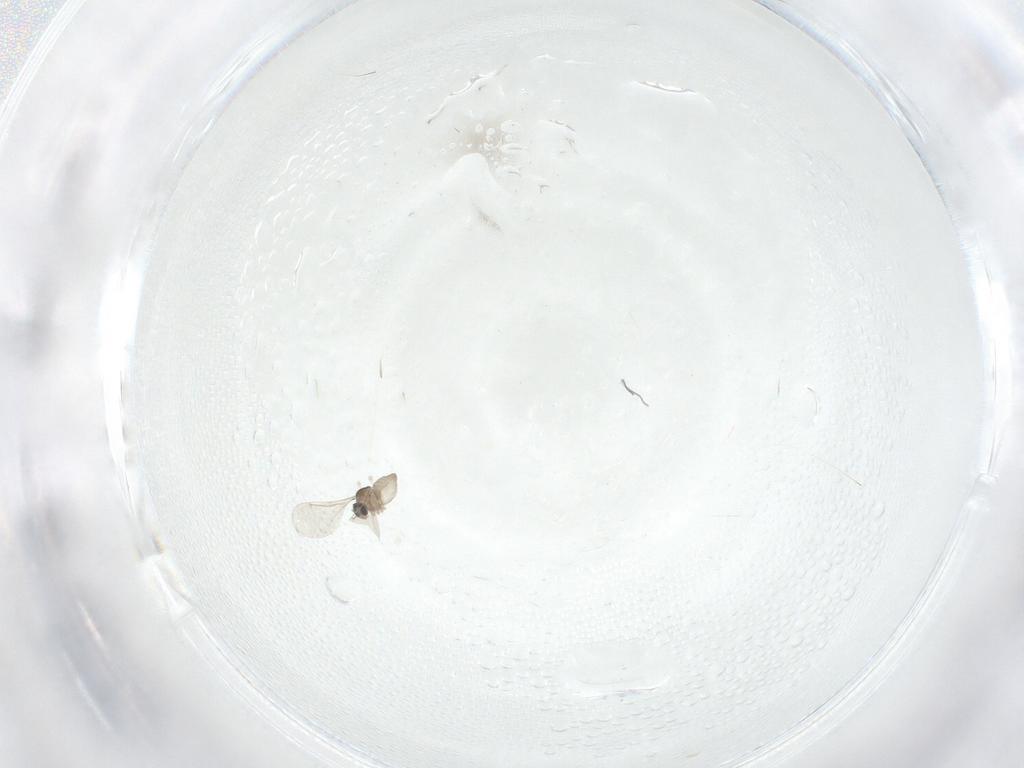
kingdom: Animalia
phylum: Arthropoda
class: Insecta
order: Diptera
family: Cecidomyiidae
